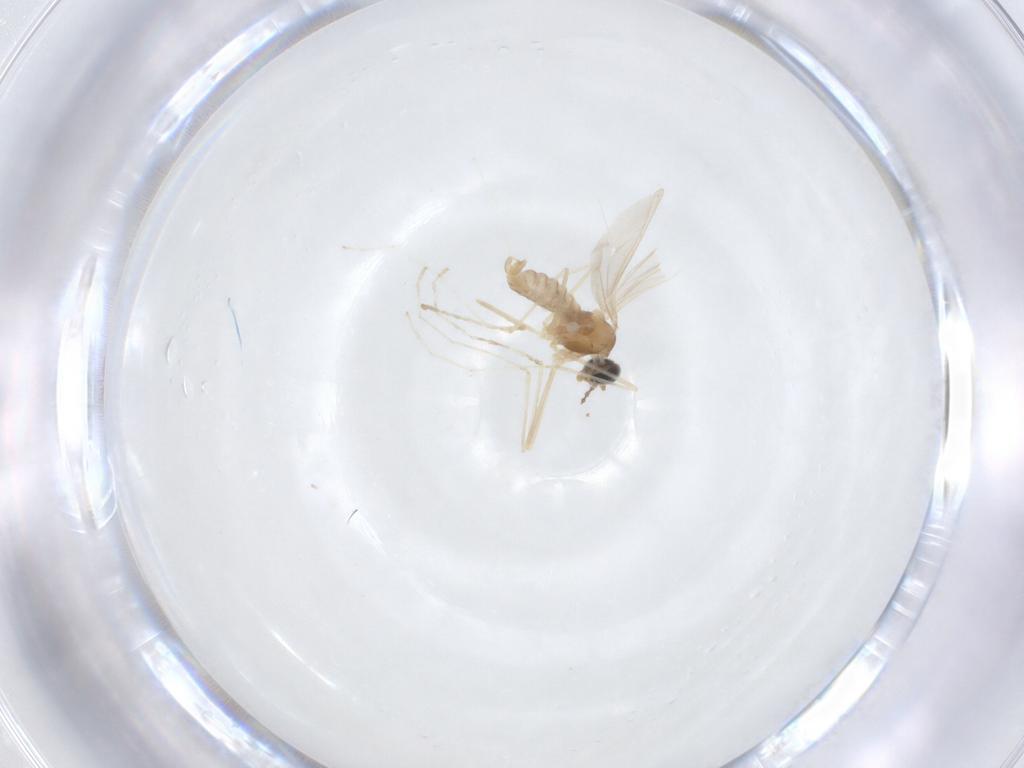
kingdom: Animalia
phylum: Arthropoda
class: Insecta
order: Diptera
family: Cecidomyiidae
